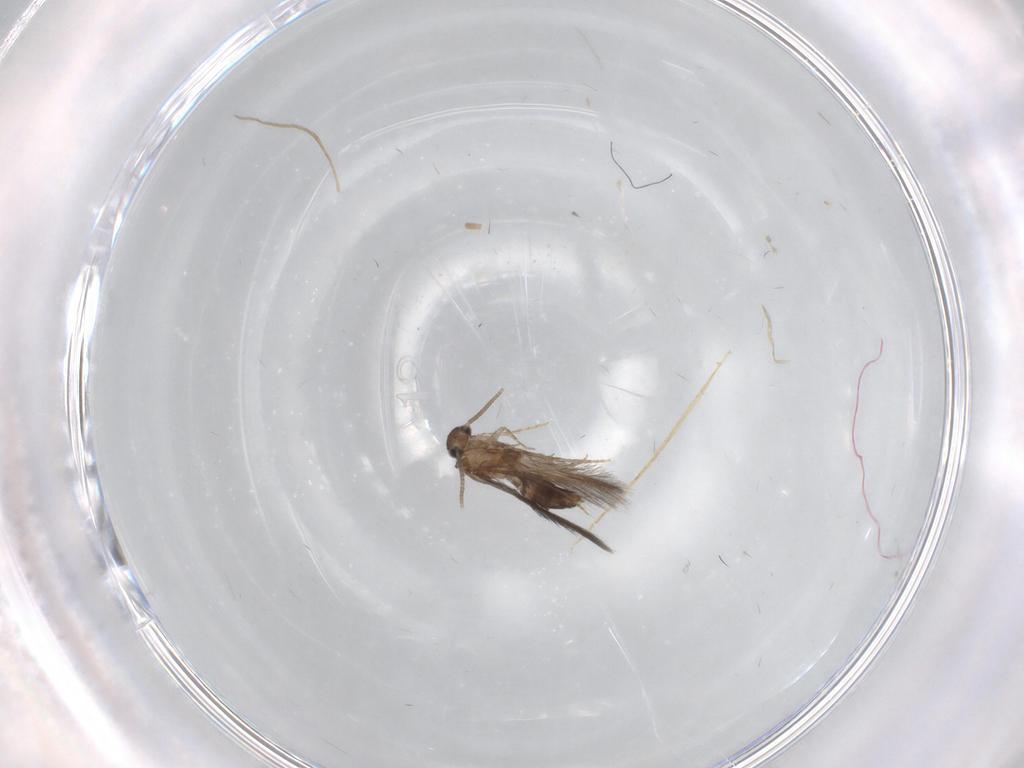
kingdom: Animalia
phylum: Arthropoda
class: Insecta
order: Trichoptera
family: Hydroptilidae
